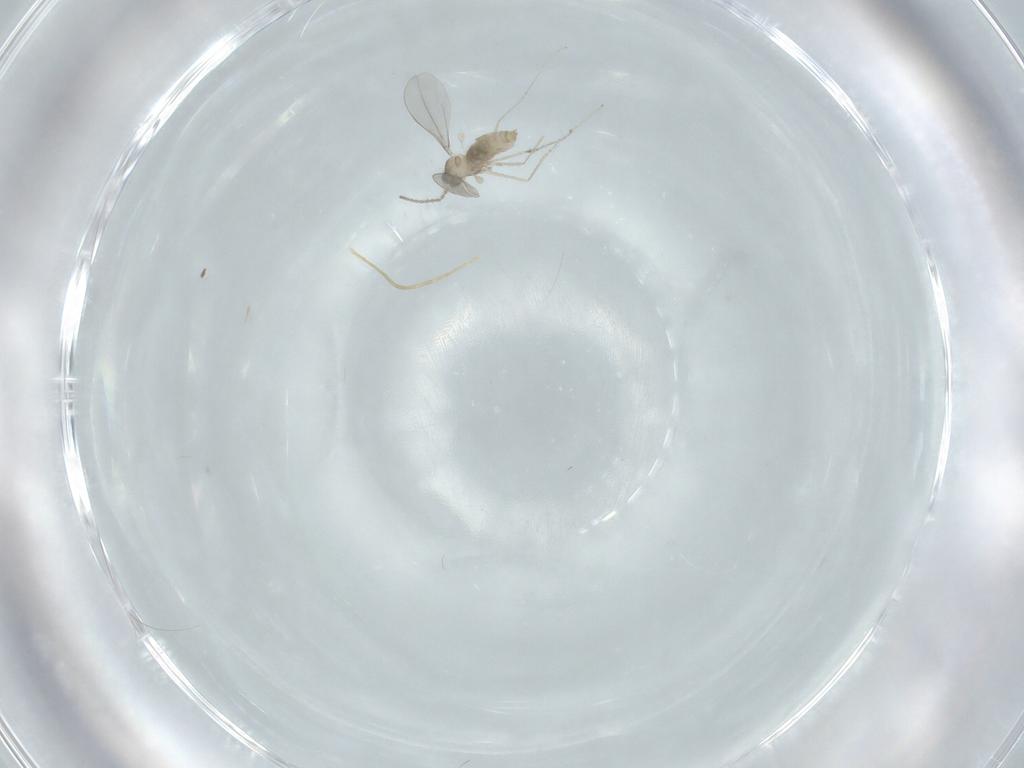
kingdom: Animalia
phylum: Arthropoda
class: Insecta
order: Diptera
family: Cecidomyiidae
